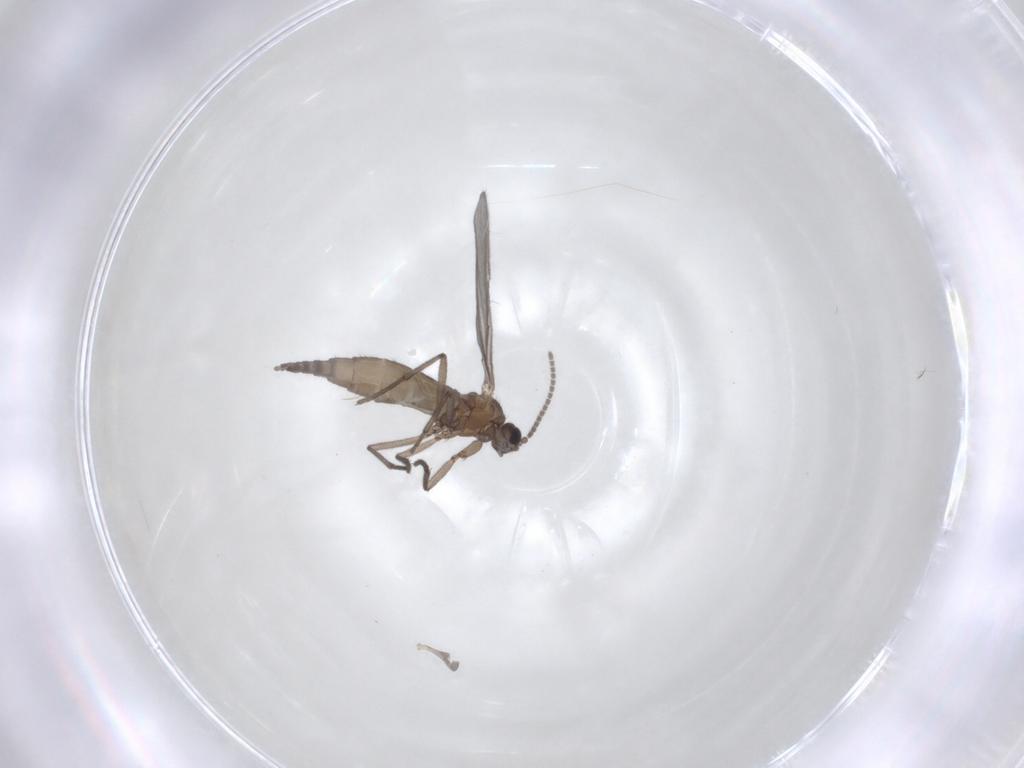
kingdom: Animalia
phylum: Arthropoda
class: Insecta
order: Diptera
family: Sciaridae
